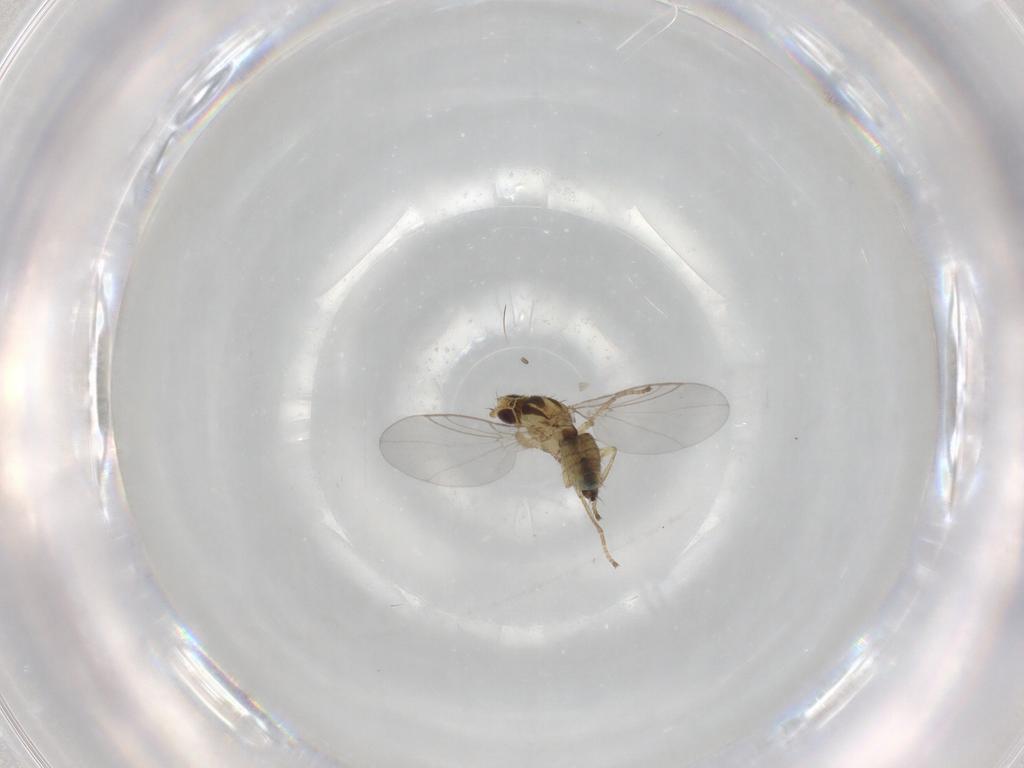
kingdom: Animalia
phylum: Arthropoda
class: Insecta
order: Diptera
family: Agromyzidae
